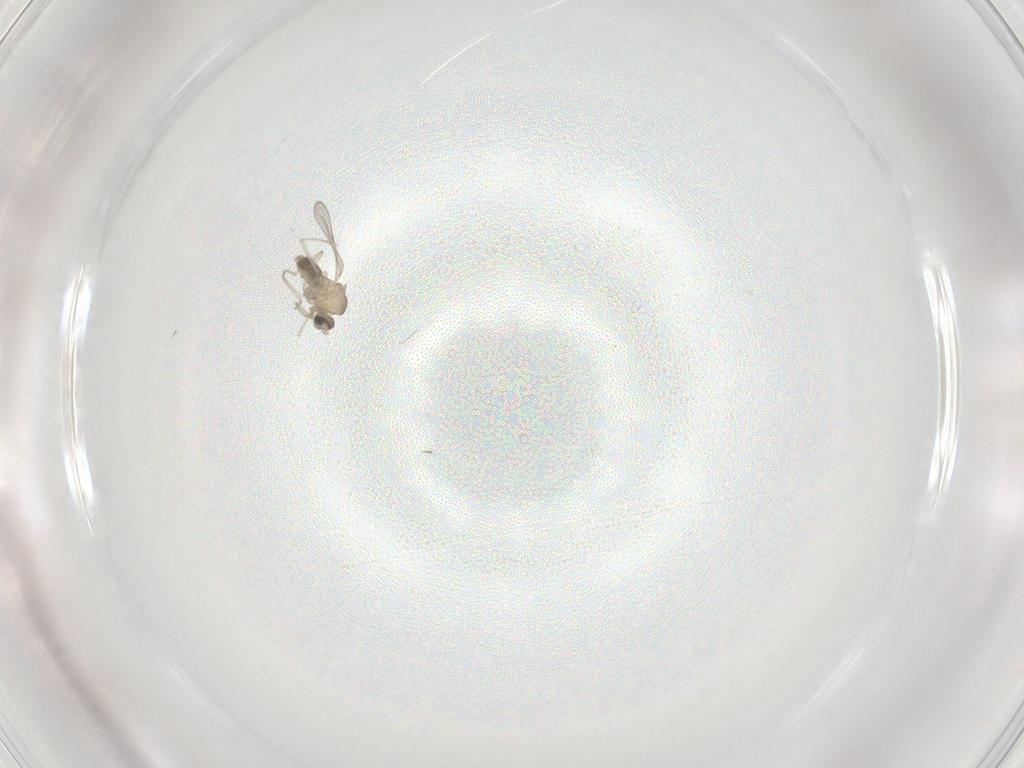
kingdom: Animalia
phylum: Arthropoda
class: Insecta
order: Diptera
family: Cecidomyiidae
